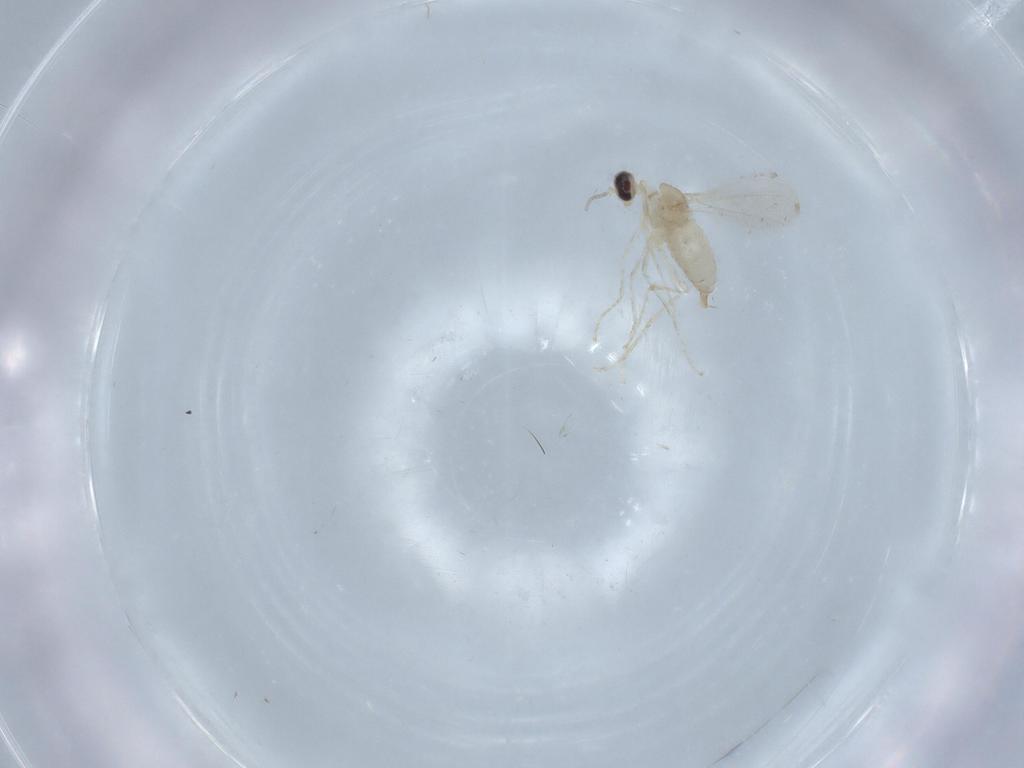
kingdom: Animalia
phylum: Arthropoda
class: Insecta
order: Diptera
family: Cecidomyiidae
